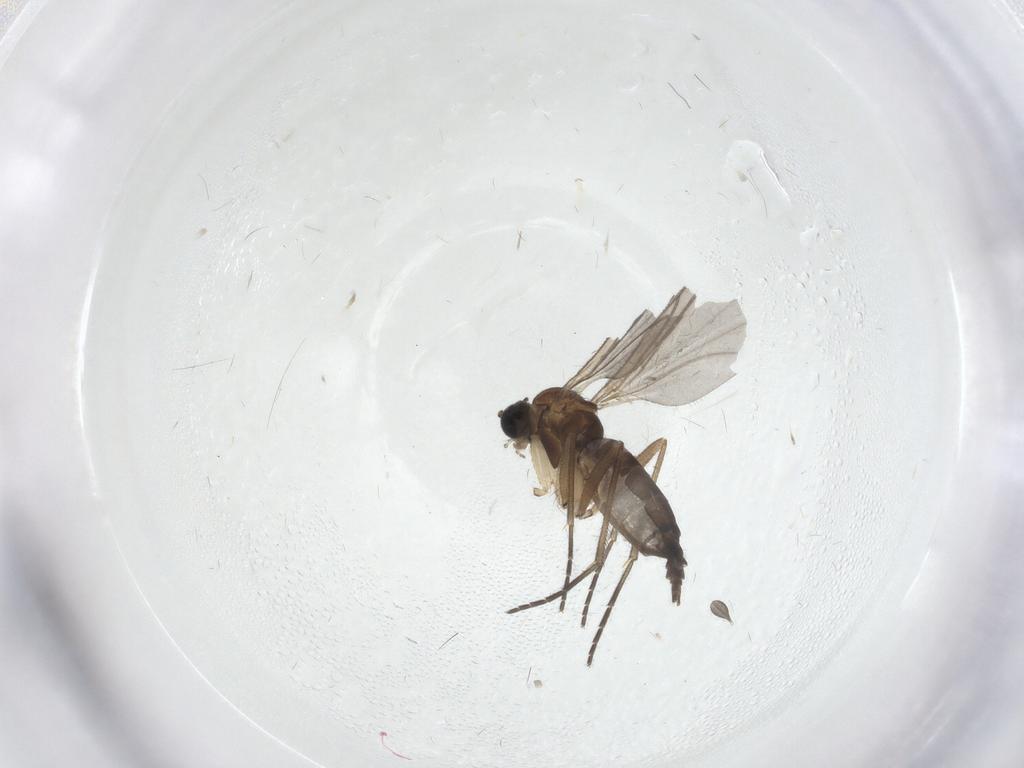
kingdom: Animalia
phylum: Arthropoda
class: Insecta
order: Diptera
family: Sciaridae
